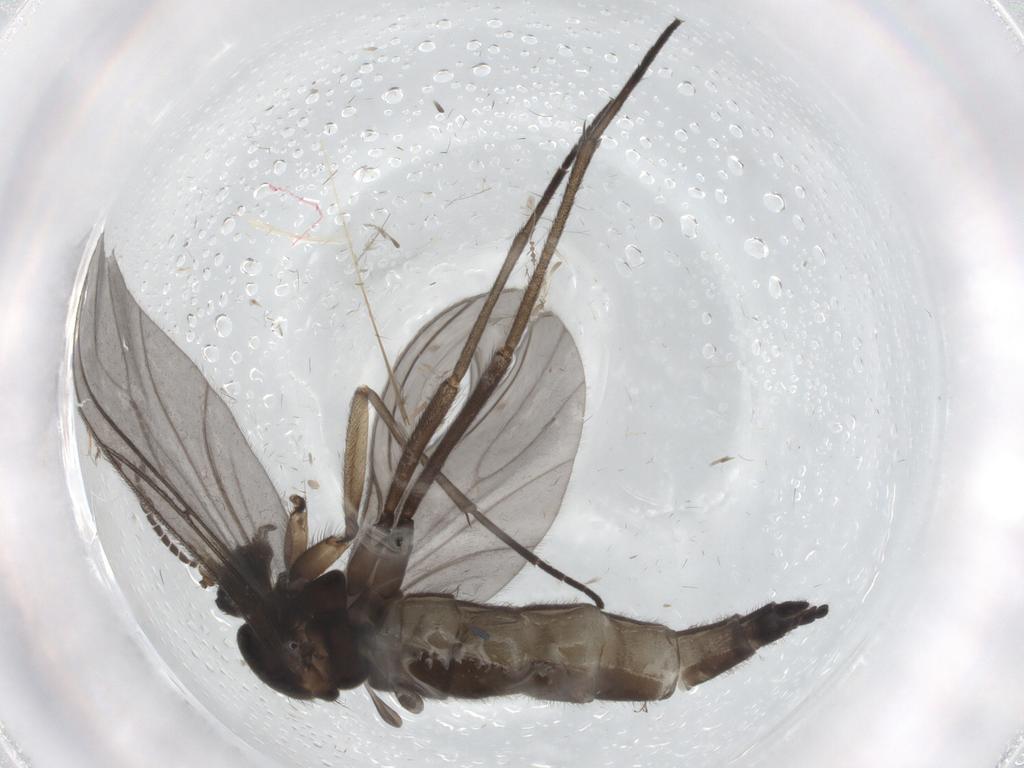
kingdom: Animalia
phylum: Arthropoda
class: Insecta
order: Diptera
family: Sciaridae
